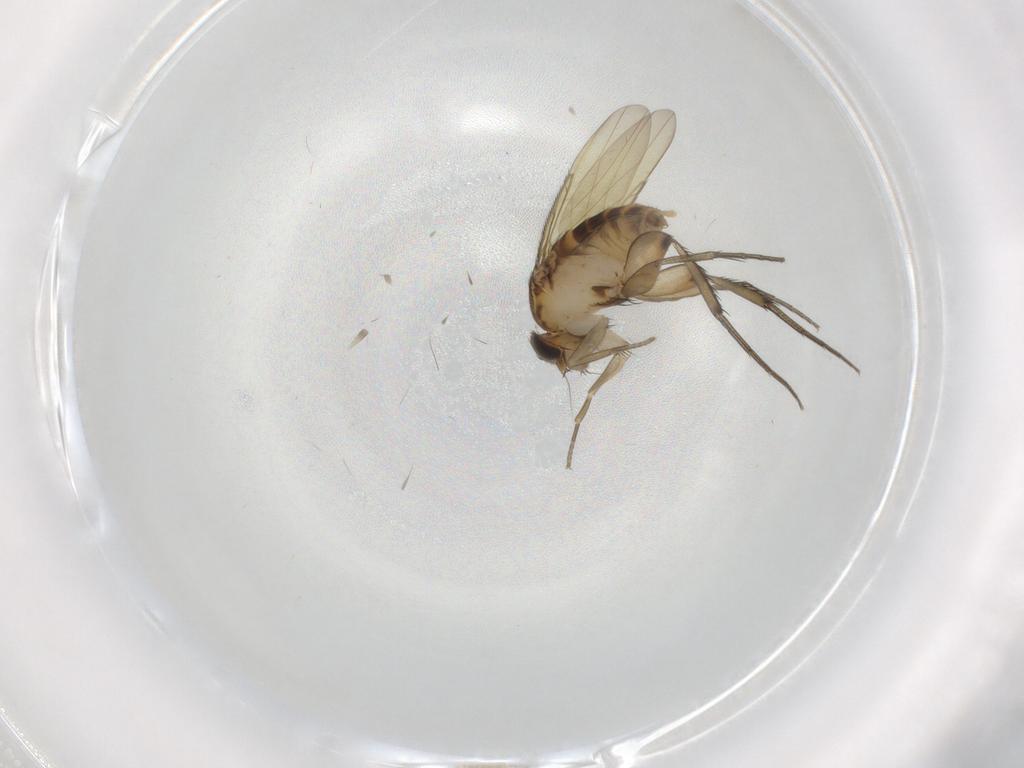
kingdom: Animalia
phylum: Arthropoda
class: Insecta
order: Diptera
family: Phoridae
